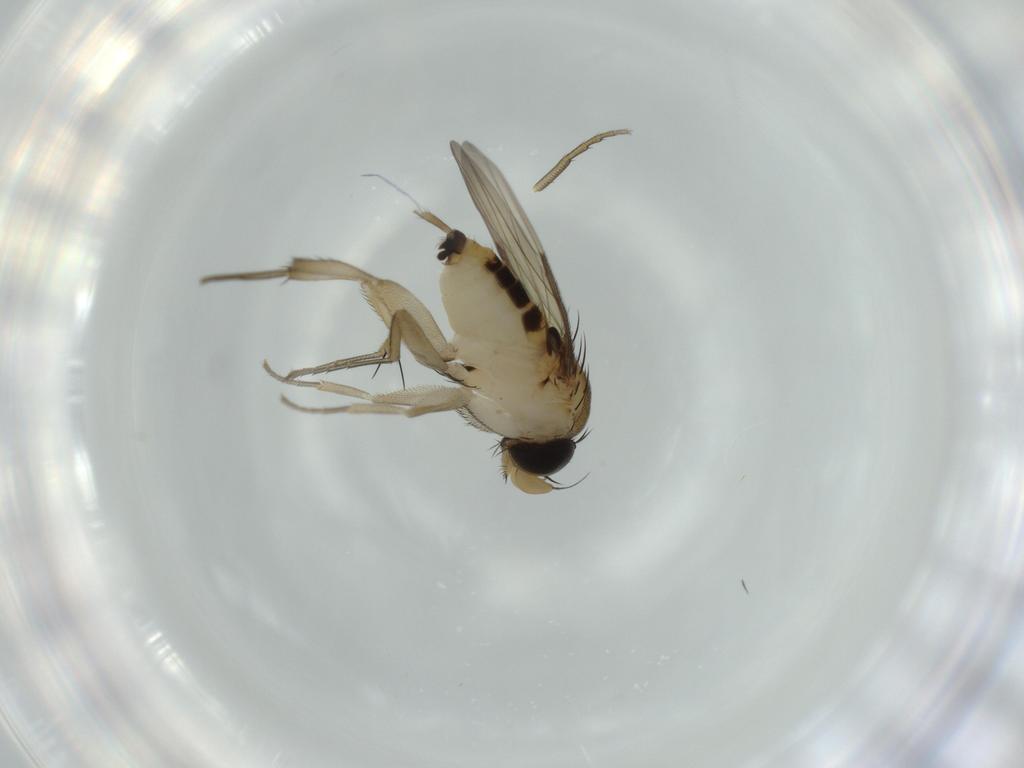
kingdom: Animalia
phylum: Arthropoda
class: Insecta
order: Diptera
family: Phoridae
